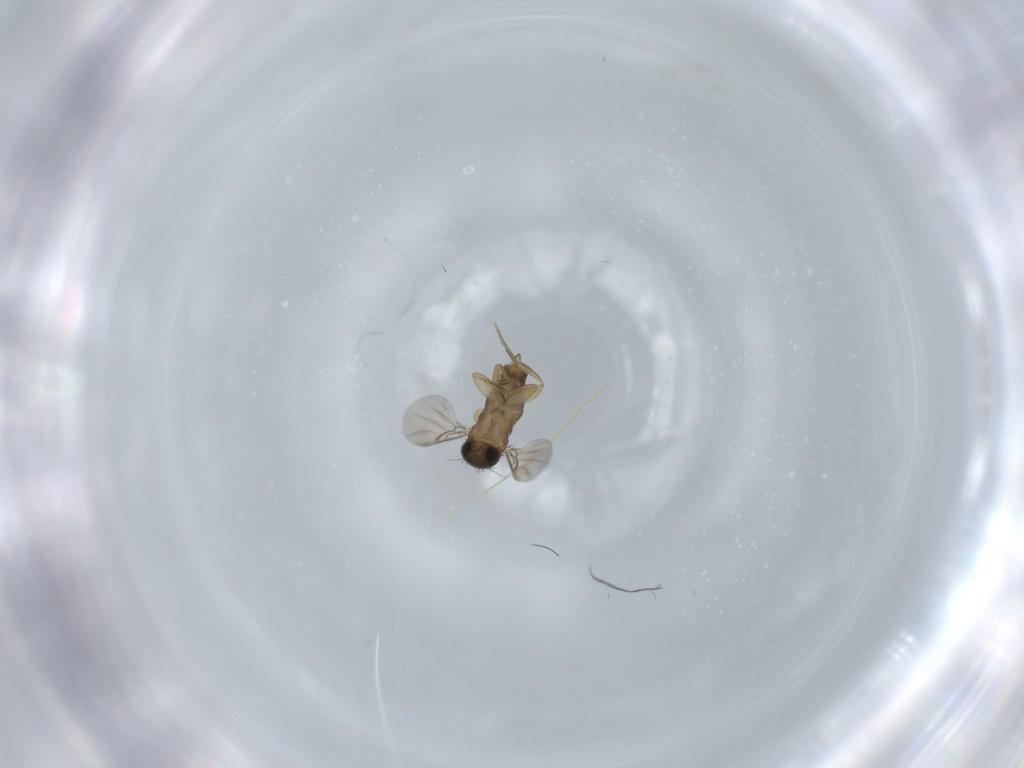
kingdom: Animalia
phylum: Arthropoda
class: Insecta
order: Diptera
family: Phoridae
